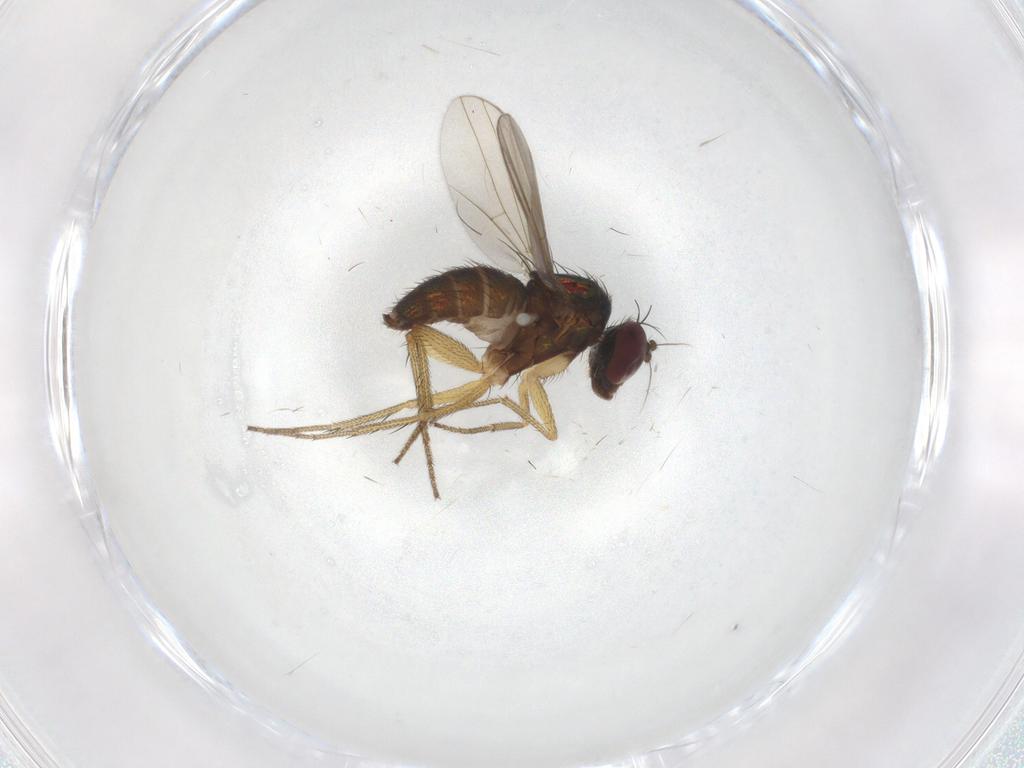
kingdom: Animalia
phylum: Arthropoda
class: Insecta
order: Diptera
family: Dolichopodidae
